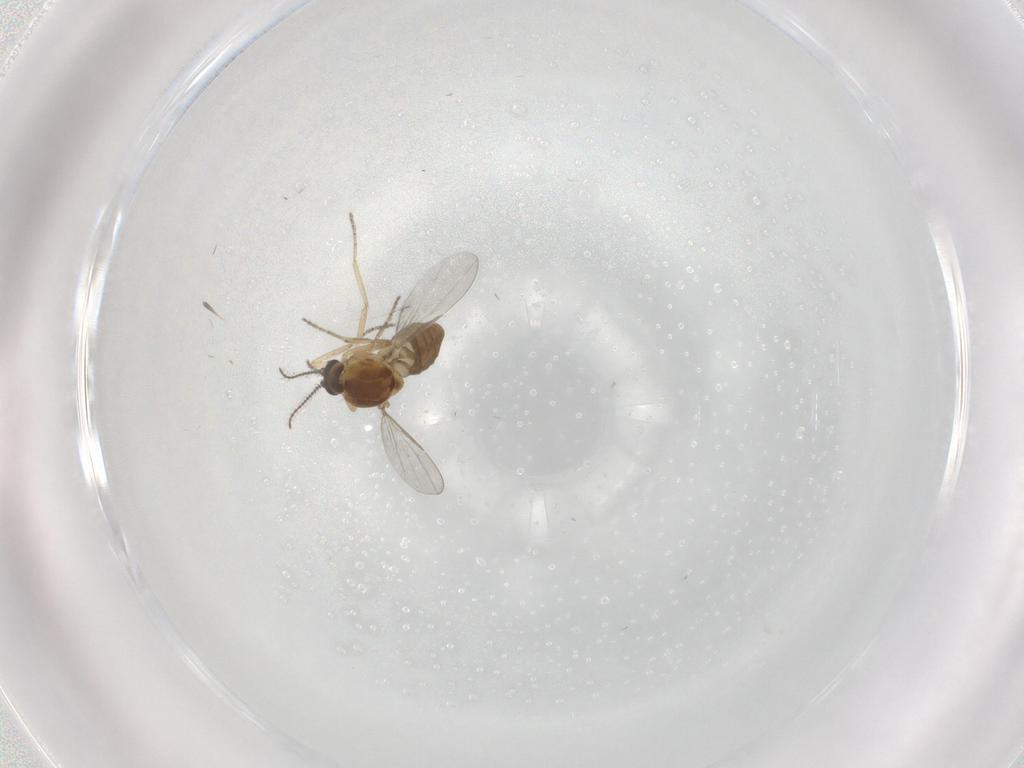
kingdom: Animalia
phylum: Arthropoda
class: Insecta
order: Diptera
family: Ceratopogonidae
